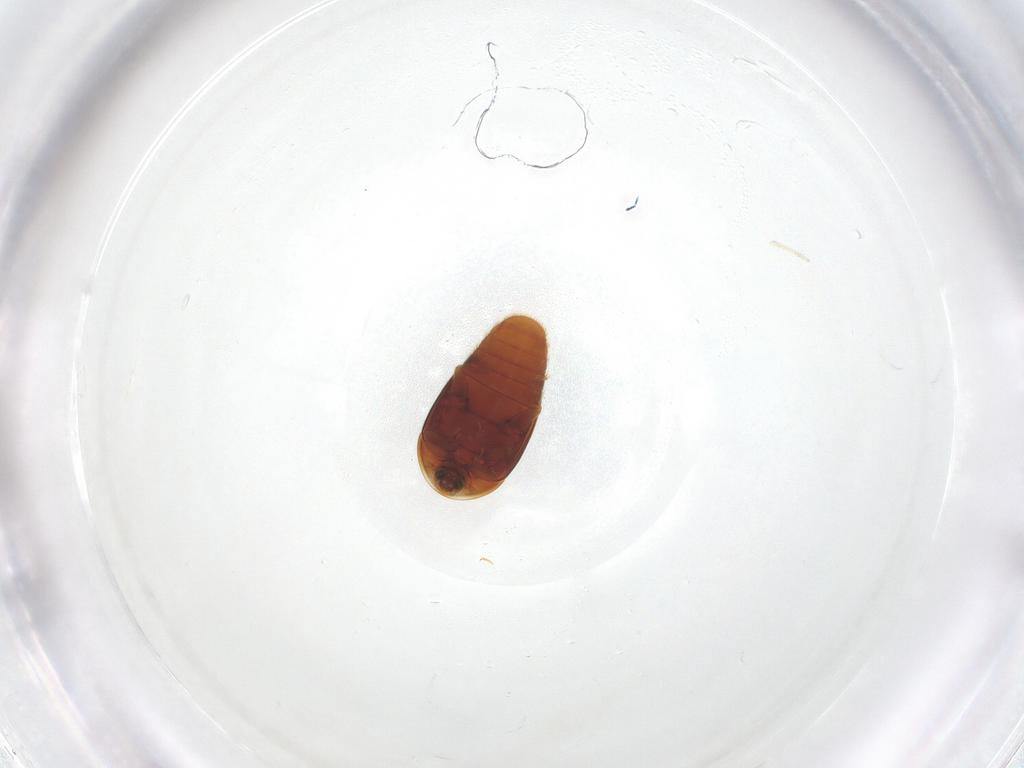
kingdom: Animalia
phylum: Arthropoda
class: Insecta
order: Coleoptera
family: Corylophidae
